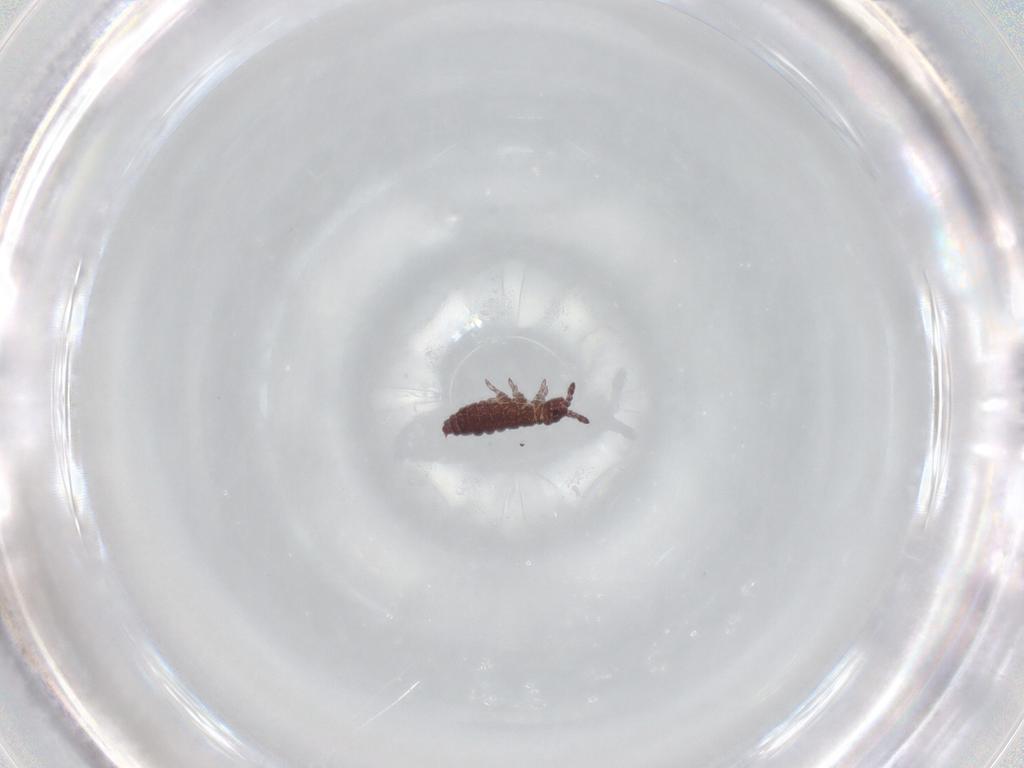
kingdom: Animalia
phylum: Arthropoda
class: Collembola
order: Poduromorpha
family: Hypogastruridae
